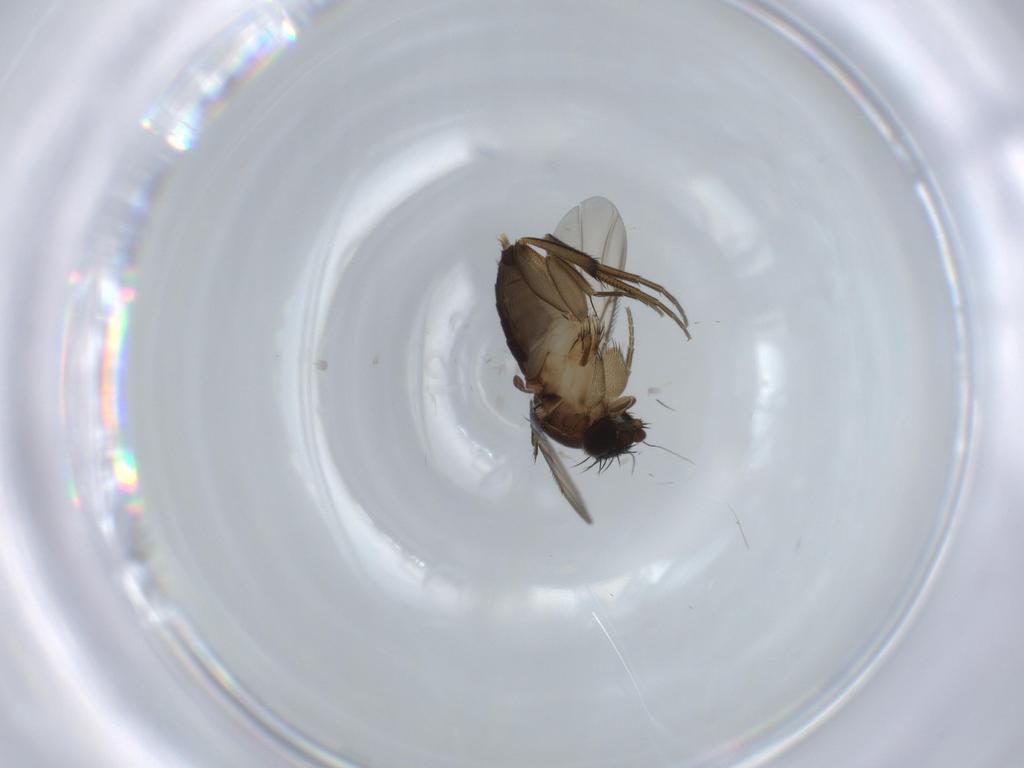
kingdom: Animalia
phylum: Arthropoda
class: Insecta
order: Diptera
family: Phoridae
